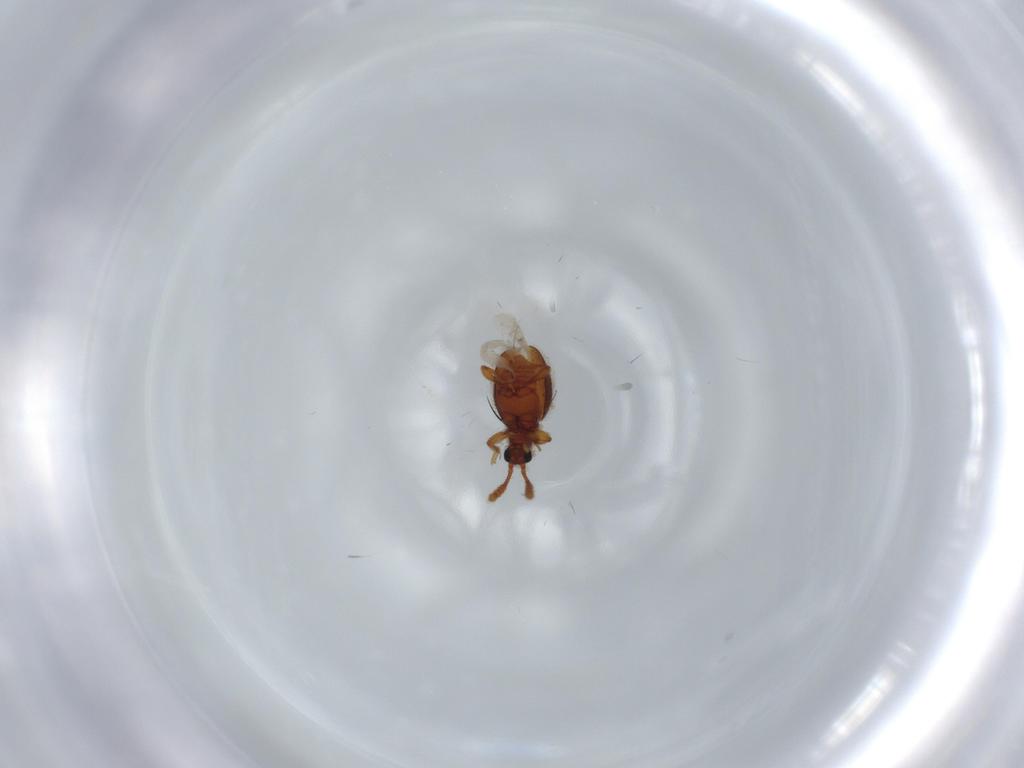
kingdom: Animalia
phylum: Arthropoda
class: Insecta
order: Coleoptera
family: Staphylinidae
